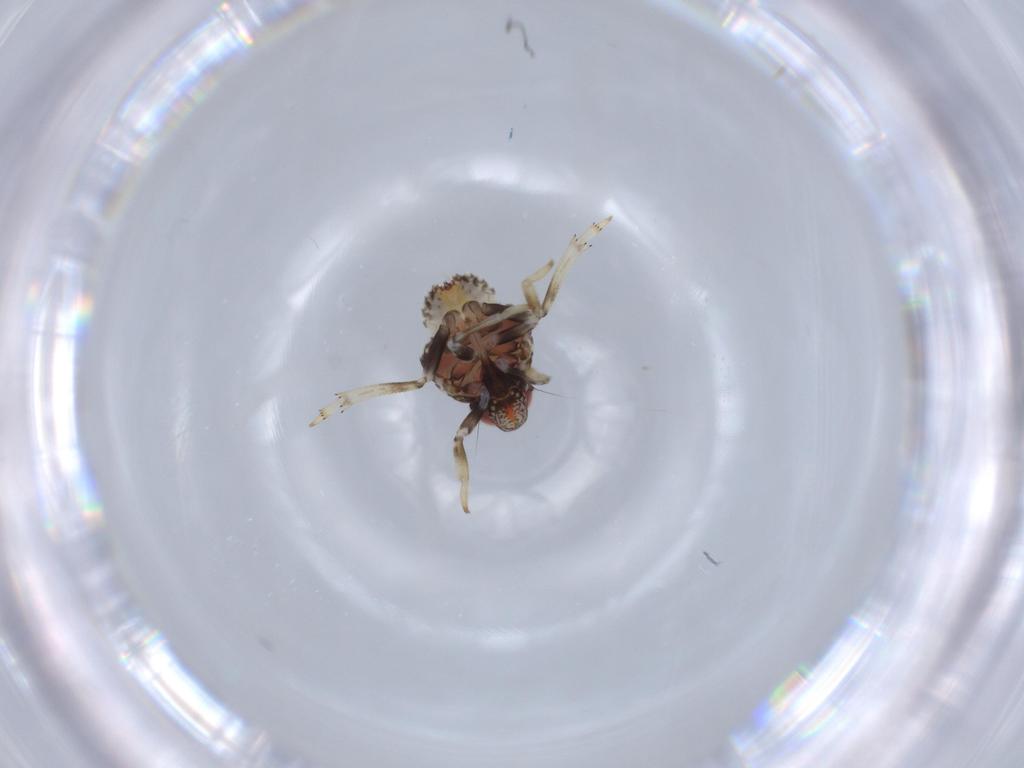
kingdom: Animalia
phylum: Arthropoda
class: Insecta
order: Hemiptera
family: Issidae
